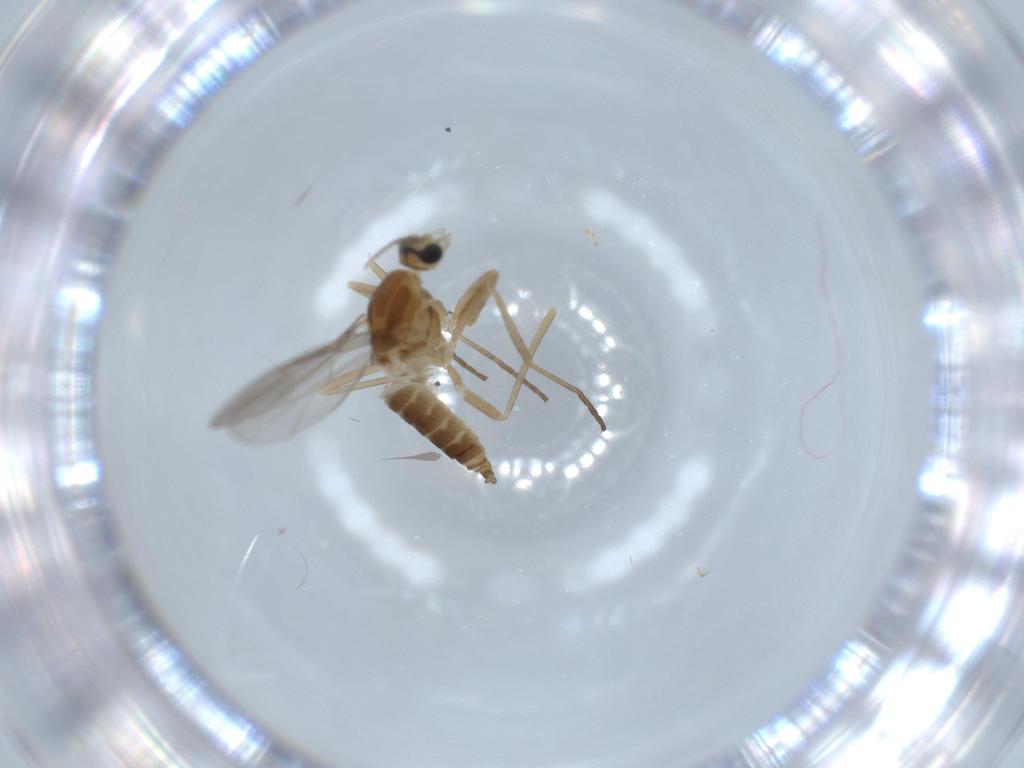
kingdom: Animalia
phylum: Arthropoda
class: Insecta
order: Diptera
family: Cecidomyiidae
